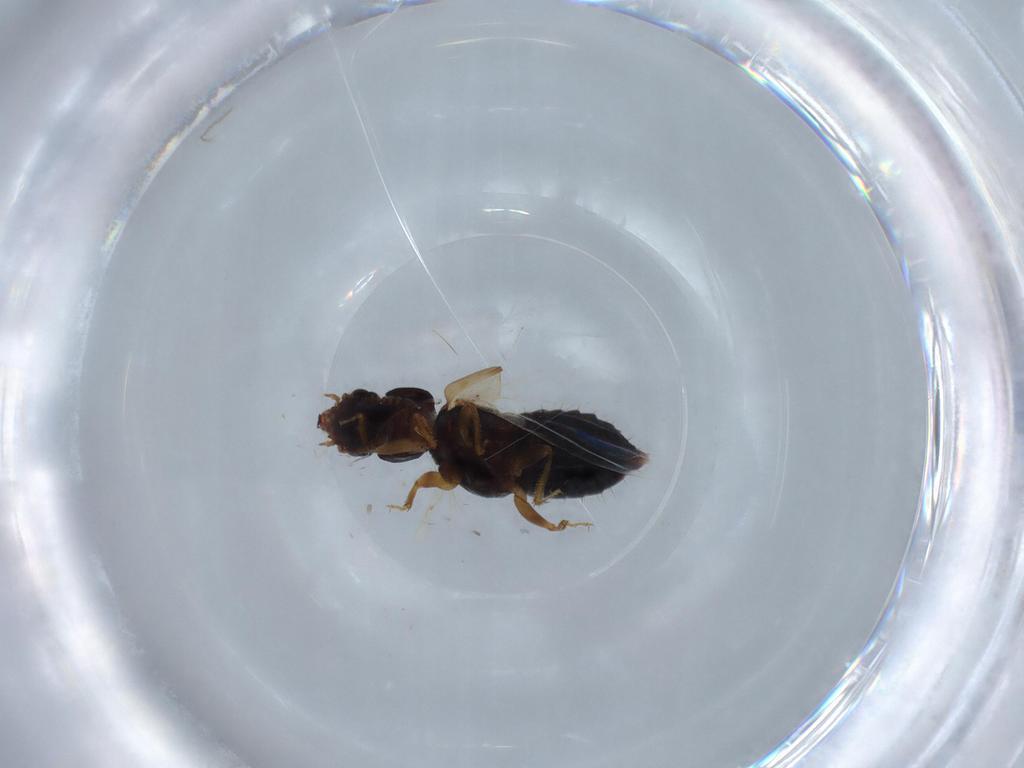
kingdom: Animalia
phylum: Arthropoda
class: Insecta
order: Coleoptera
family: Staphylinidae
